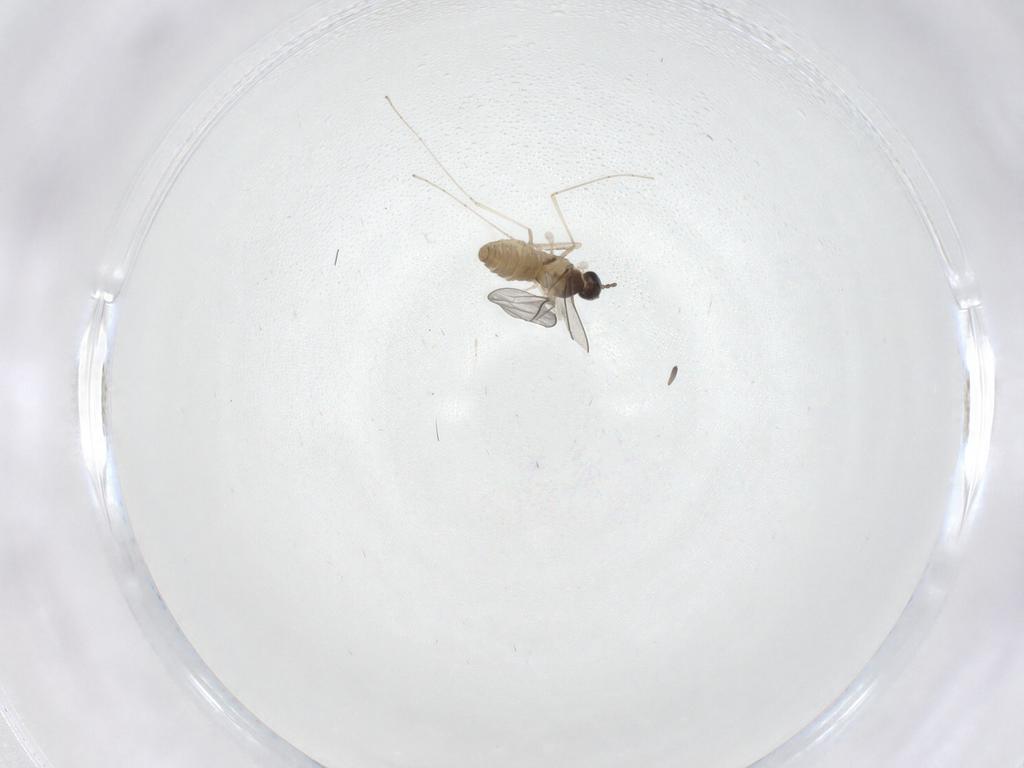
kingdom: Animalia
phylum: Arthropoda
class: Insecta
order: Diptera
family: Cecidomyiidae
